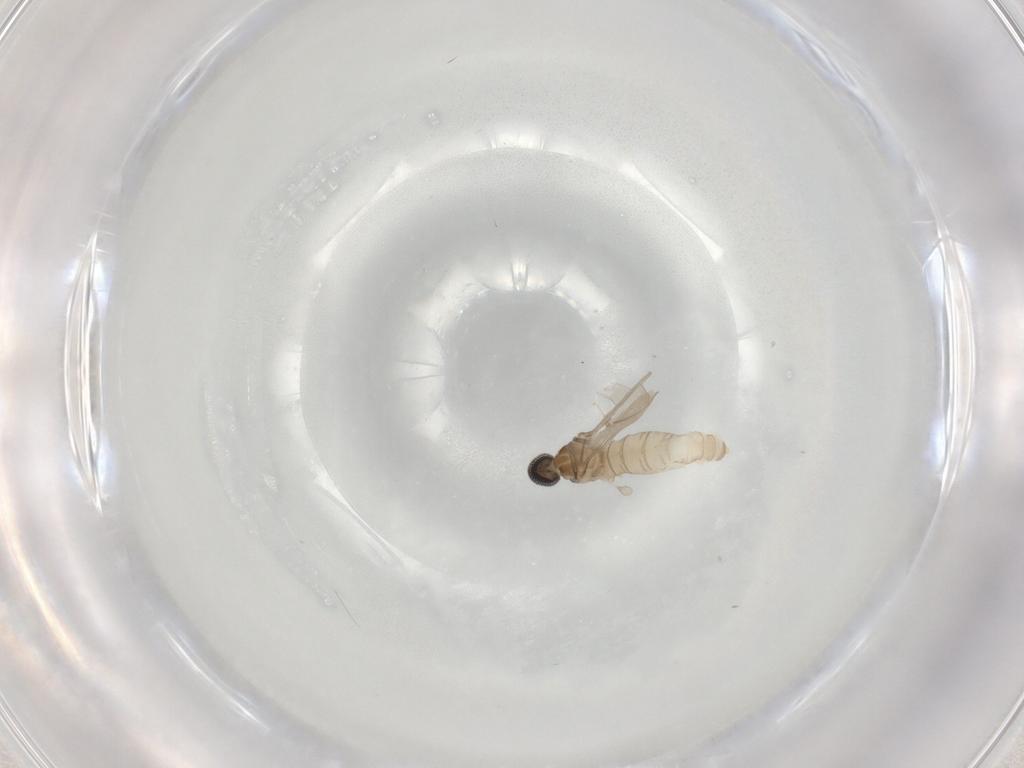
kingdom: Animalia
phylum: Arthropoda
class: Insecta
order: Diptera
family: Cecidomyiidae
